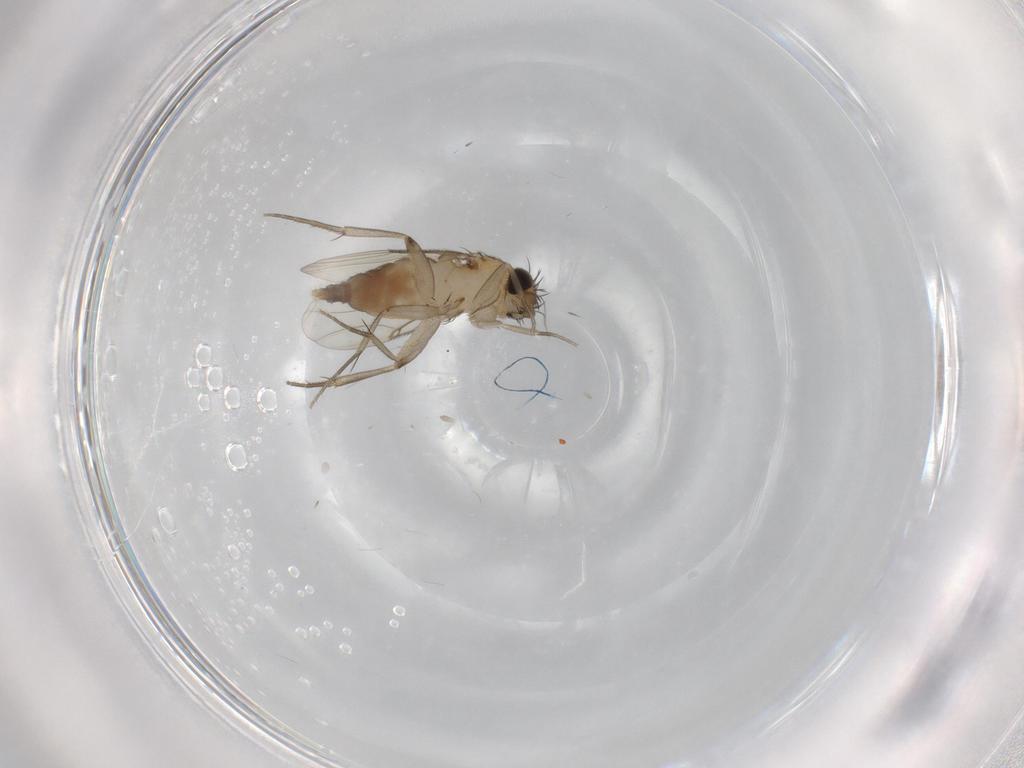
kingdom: Animalia
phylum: Arthropoda
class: Insecta
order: Diptera
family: Phoridae
